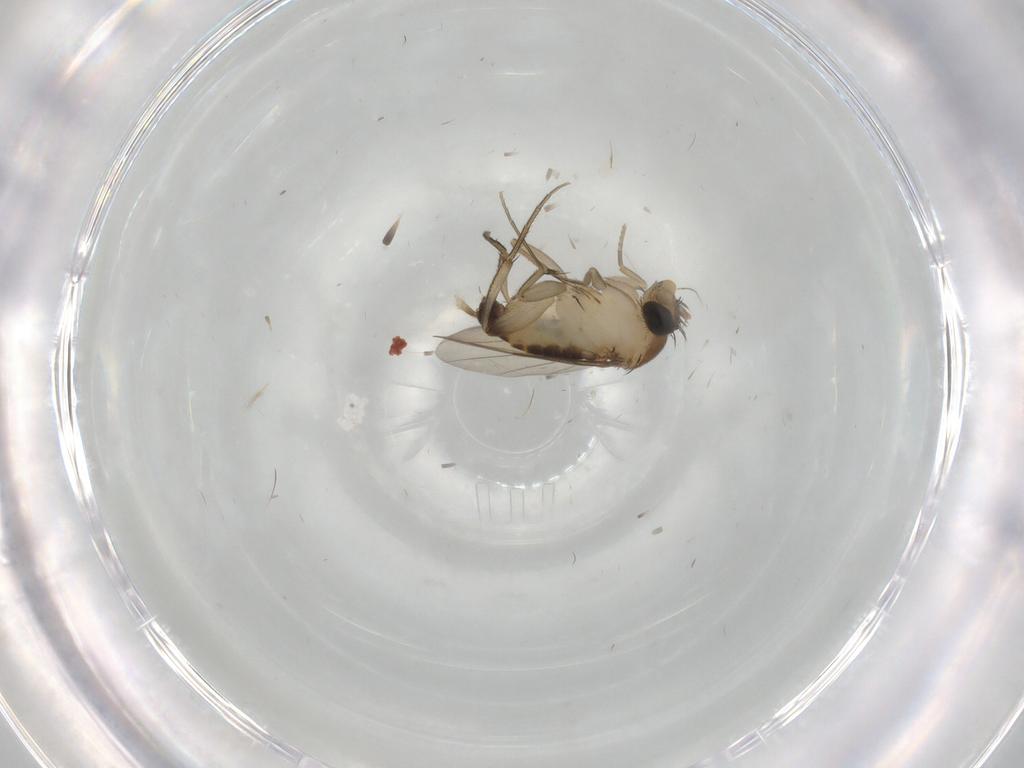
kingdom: Animalia
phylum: Arthropoda
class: Insecta
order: Diptera
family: Phoridae
